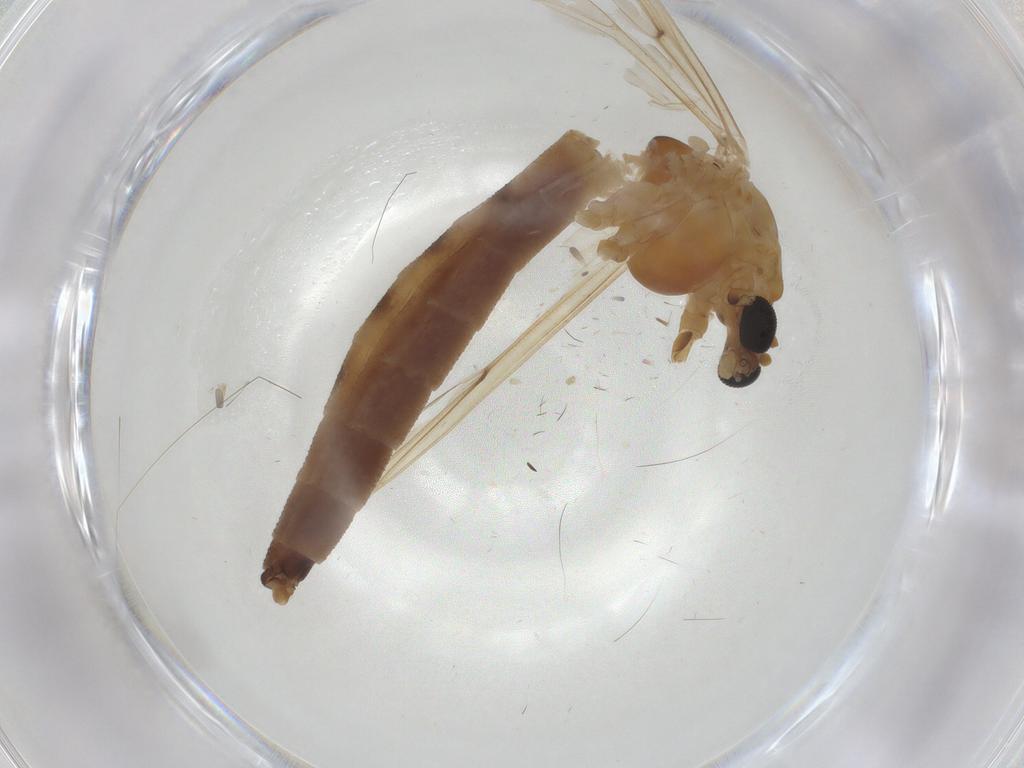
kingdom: Animalia
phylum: Arthropoda
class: Insecta
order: Diptera
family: Chironomidae
